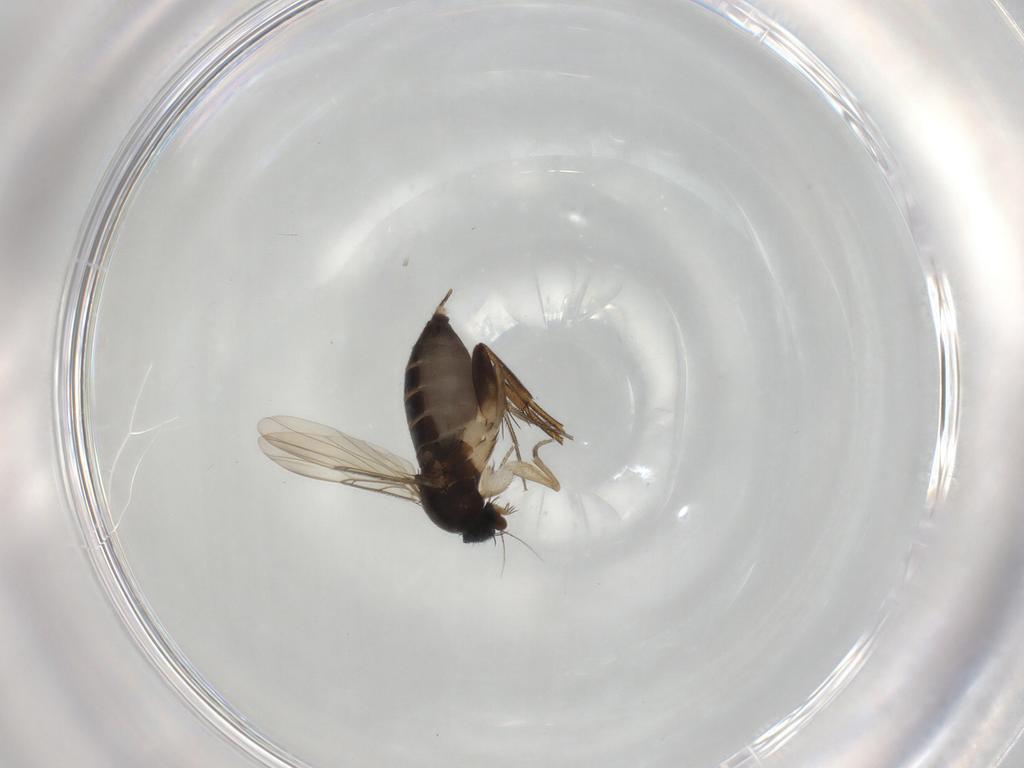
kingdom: Animalia
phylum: Arthropoda
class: Insecta
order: Diptera
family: Phoridae
